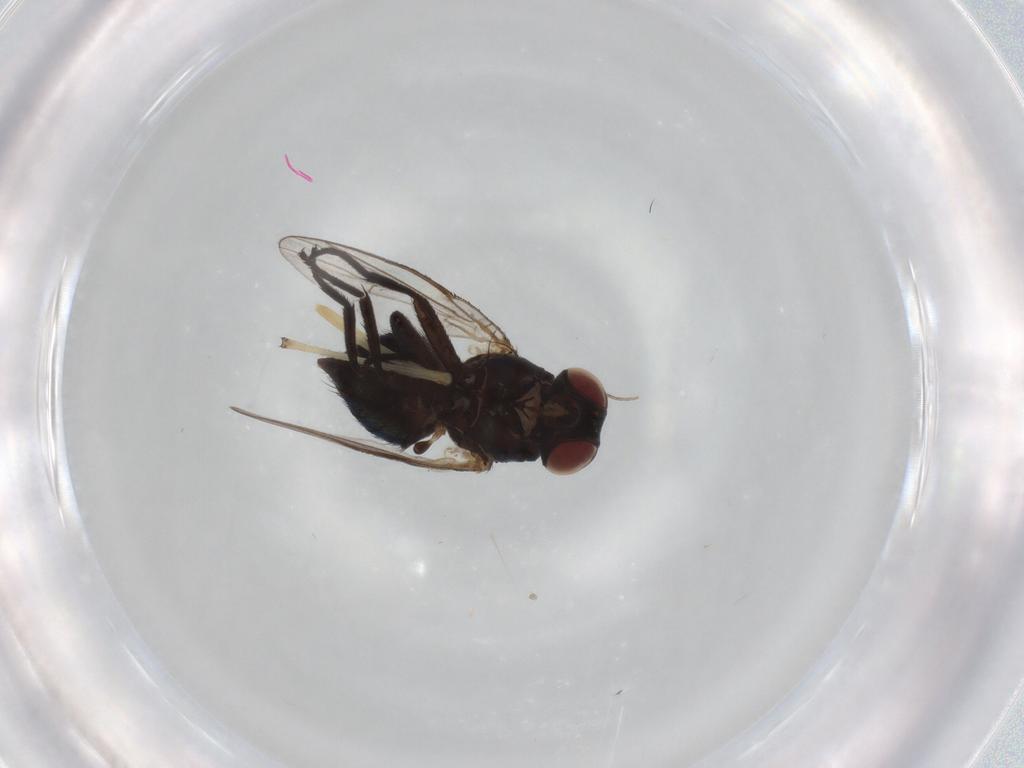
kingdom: Animalia
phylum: Arthropoda
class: Insecta
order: Diptera
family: Chironomidae
